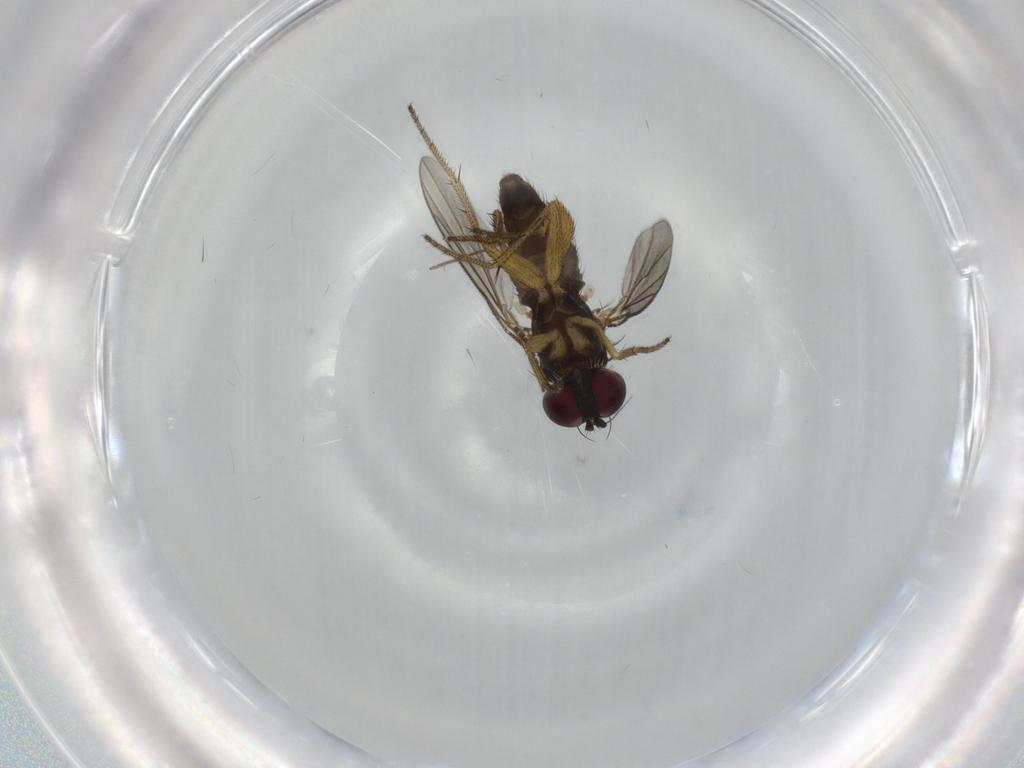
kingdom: Animalia
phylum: Arthropoda
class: Insecta
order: Diptera
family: Sciaridae
